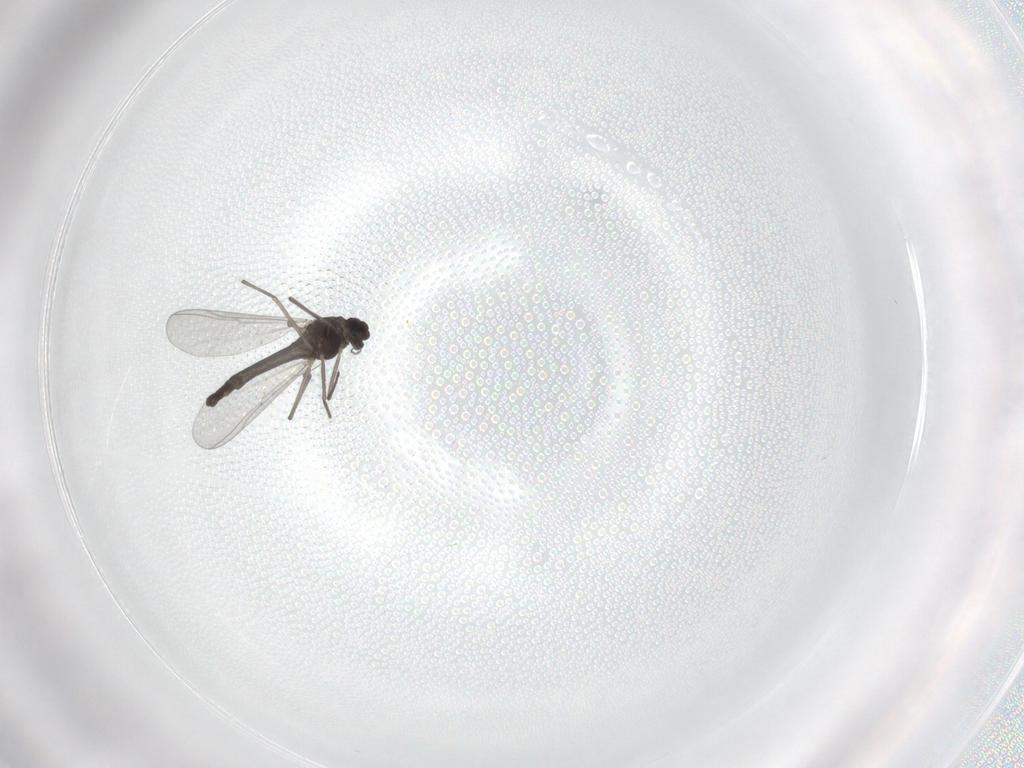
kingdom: Animalia
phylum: Arthropoda
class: Insecta
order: Diptera
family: Chironomidae
